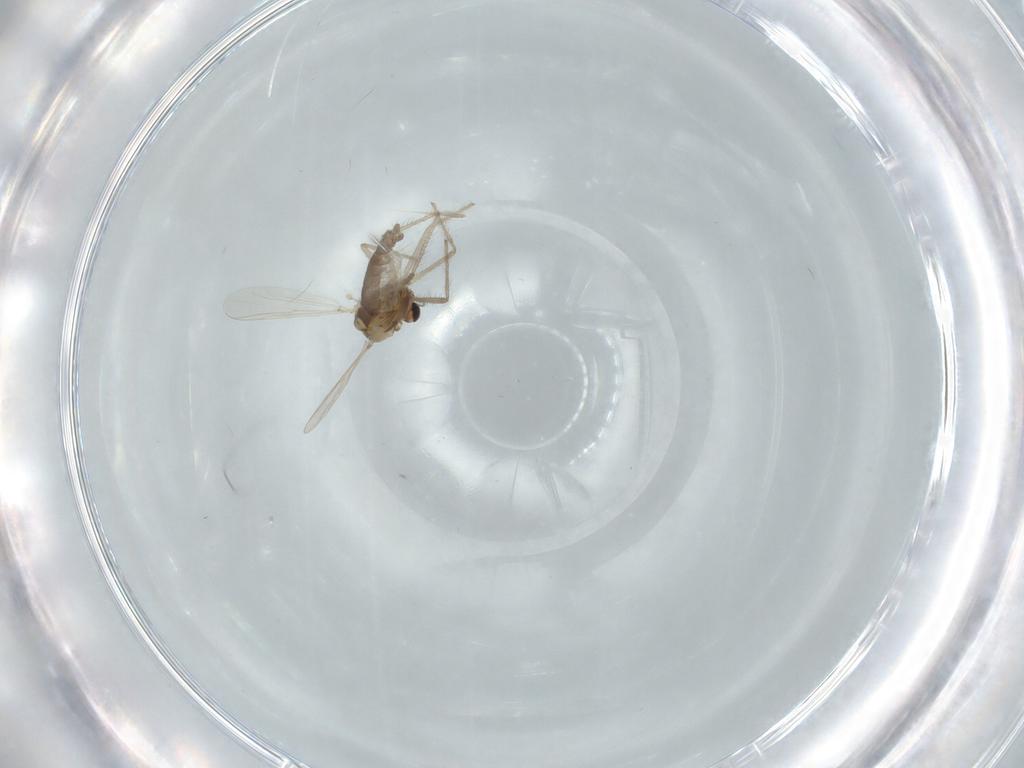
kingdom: Animalia
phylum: Arthropoda
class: Insecta
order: Diptera
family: Chironomidae
